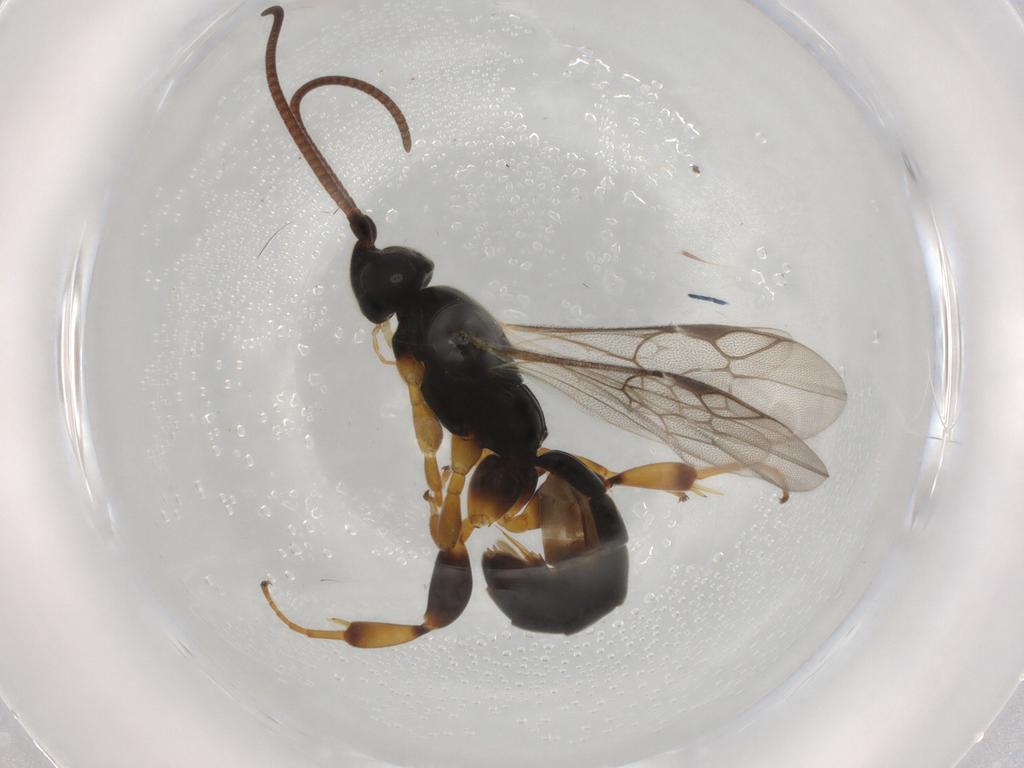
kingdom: Animalia
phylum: Arthropoda
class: Insecta
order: Hymenoptera
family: Ichneumonidae
